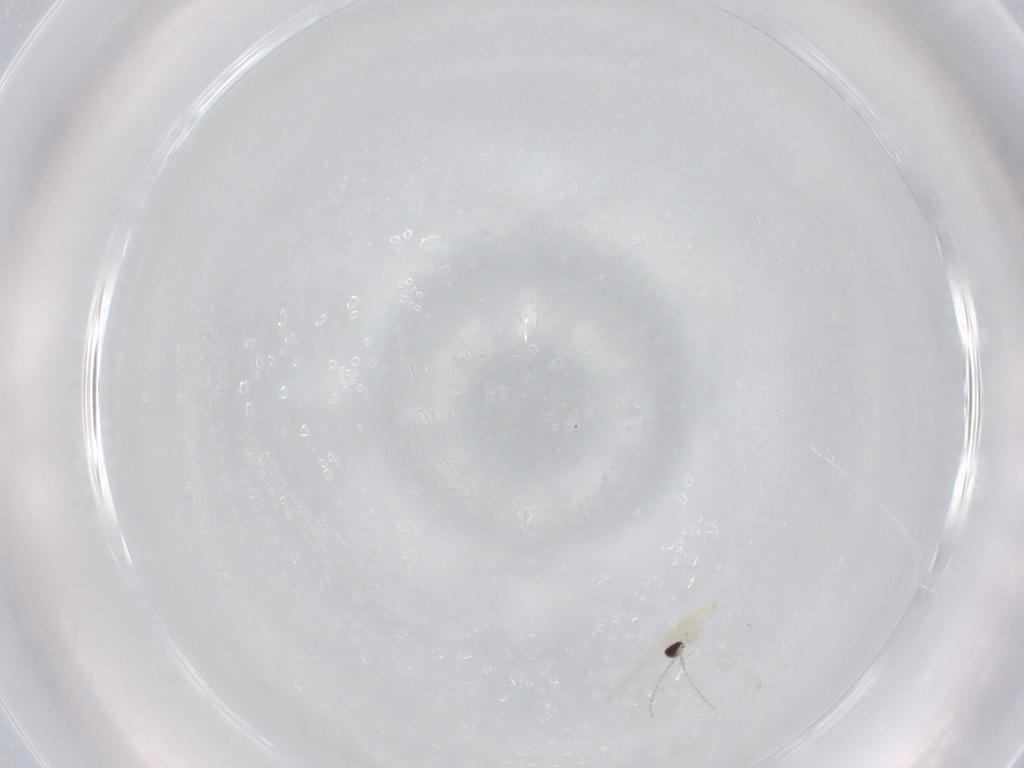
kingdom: Animalia
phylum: Arthropoda
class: Insecta
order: Diptera
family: Cecidomyiidae
